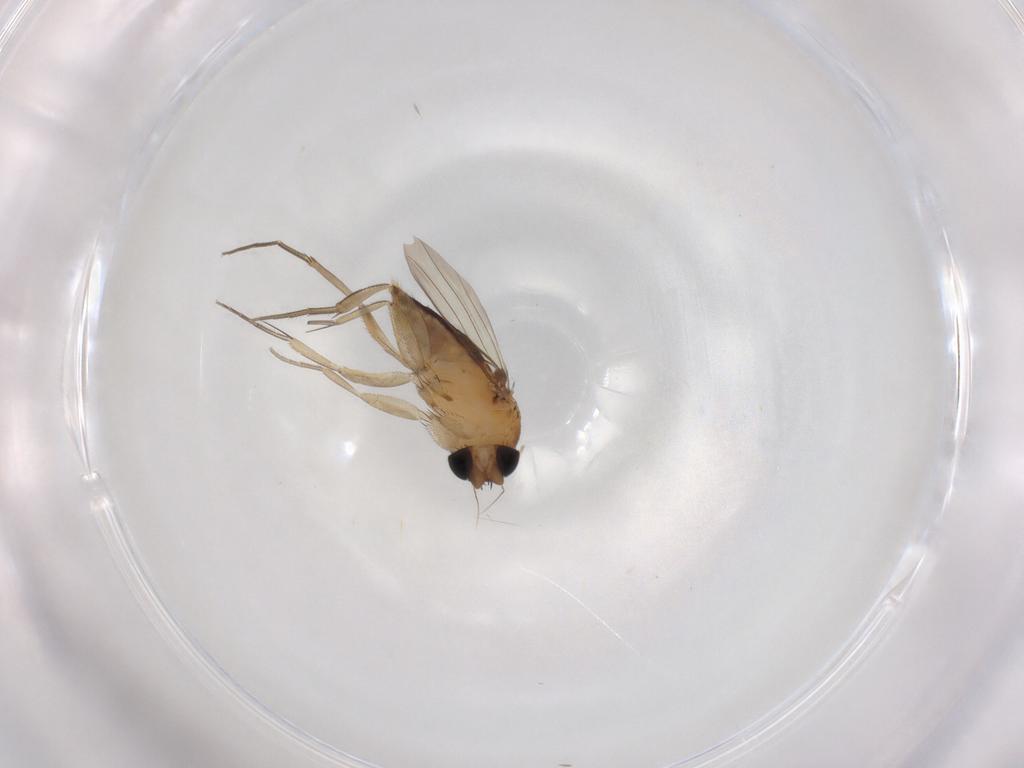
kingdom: Animalia
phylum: Arthropoda
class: Insecta
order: Diptera
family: Phoridae
